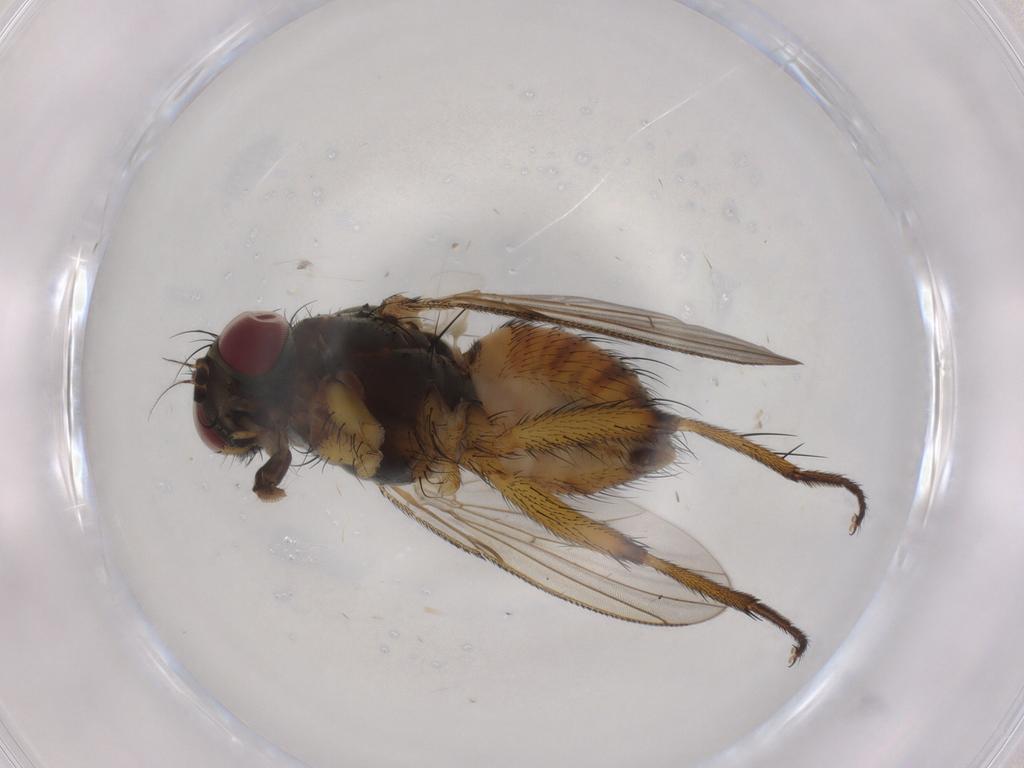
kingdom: Animalia
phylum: Arthropoda
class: Insecta
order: Diptera
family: Muscidae
